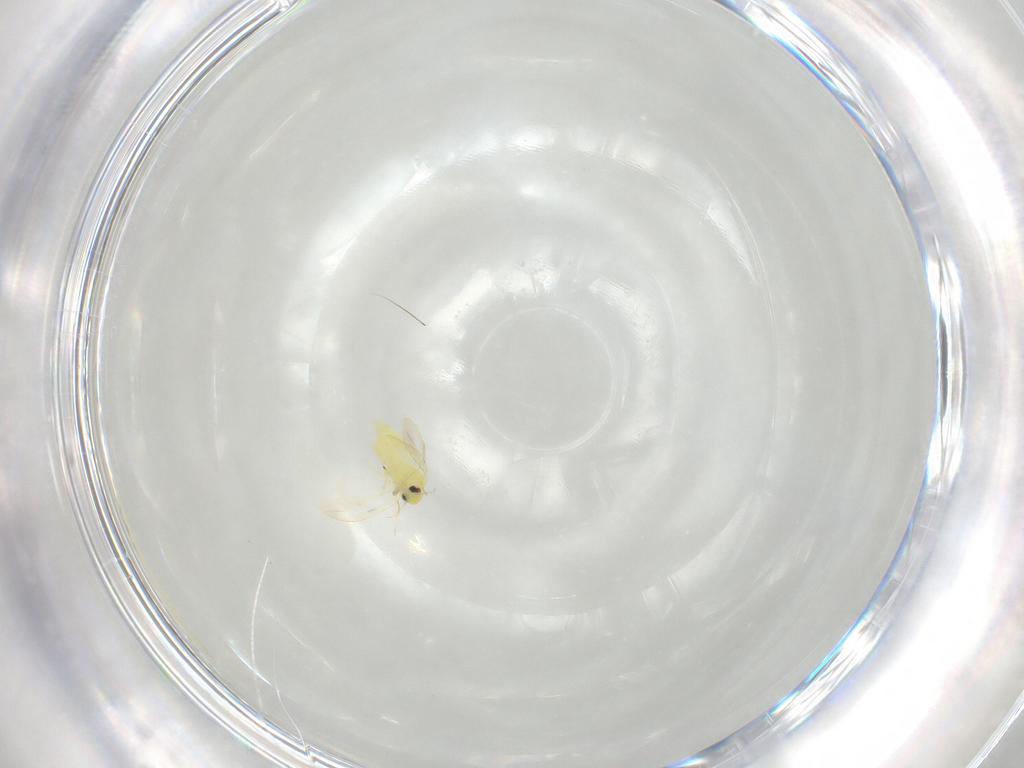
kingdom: Animalia
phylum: Arthropoda
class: Insecta
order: Hemiptera
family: Aleyrodidae
